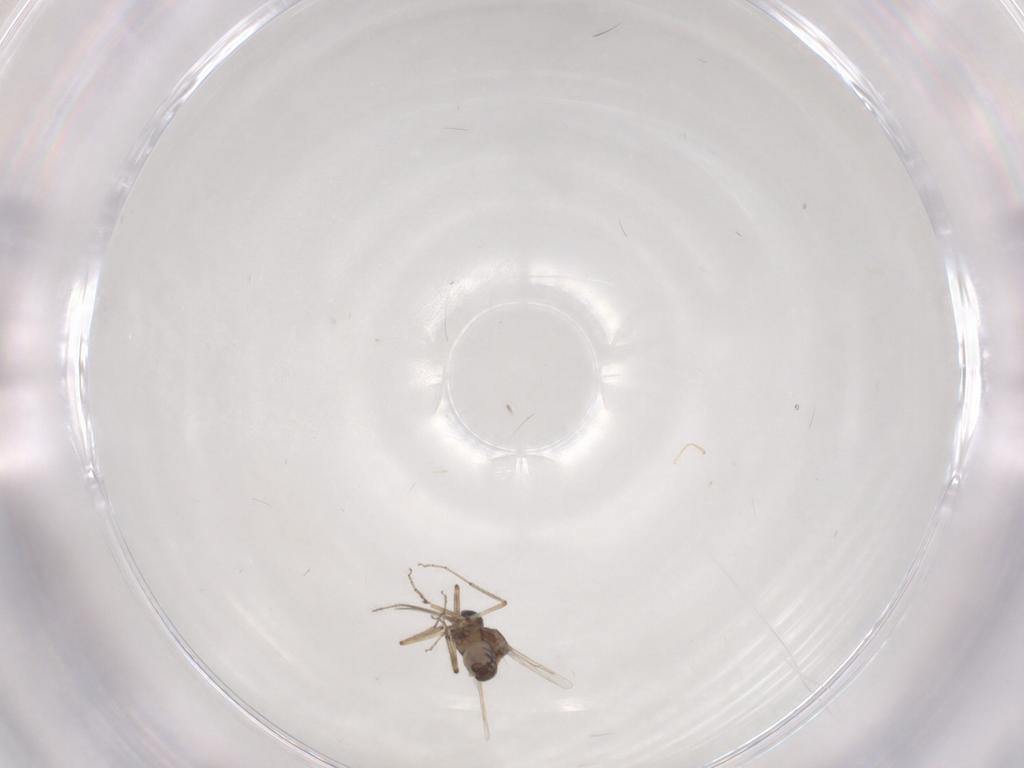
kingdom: Animalia
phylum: Arthropoda
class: Insecta
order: Diptera
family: Ceratopogonidae
